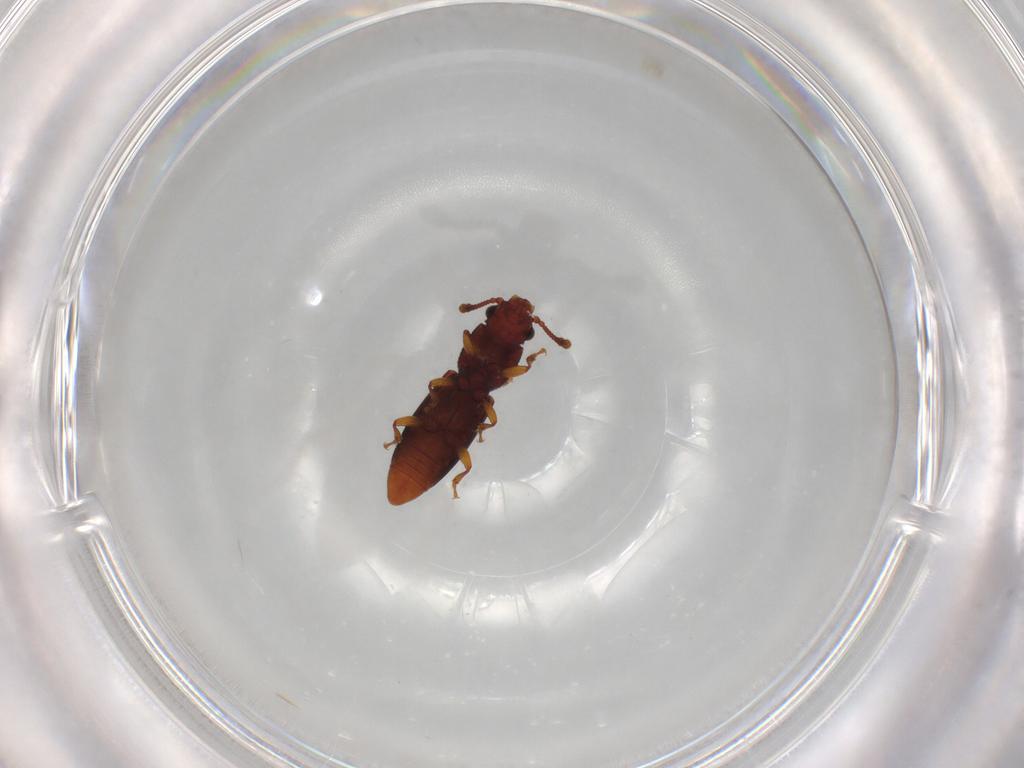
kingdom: Animalia
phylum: Arthropoda
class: Insecta
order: Coleoptera
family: Monotomidae
